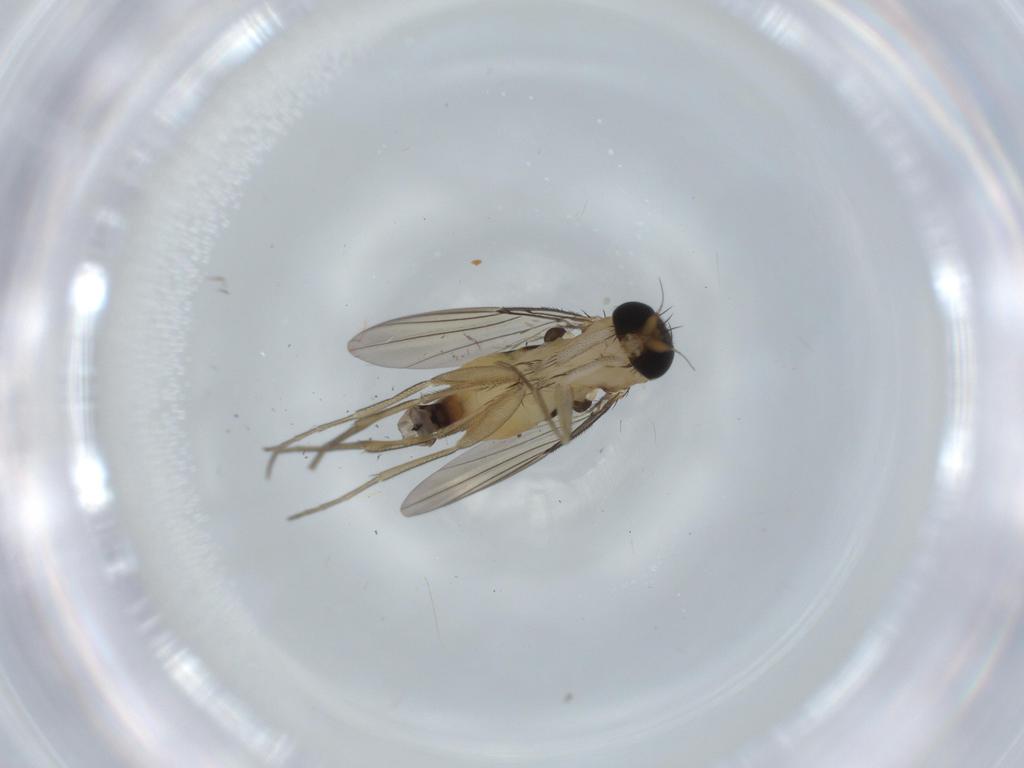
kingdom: Animalia
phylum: Arthropoda
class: Insecta
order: Diptera
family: Phoridae
